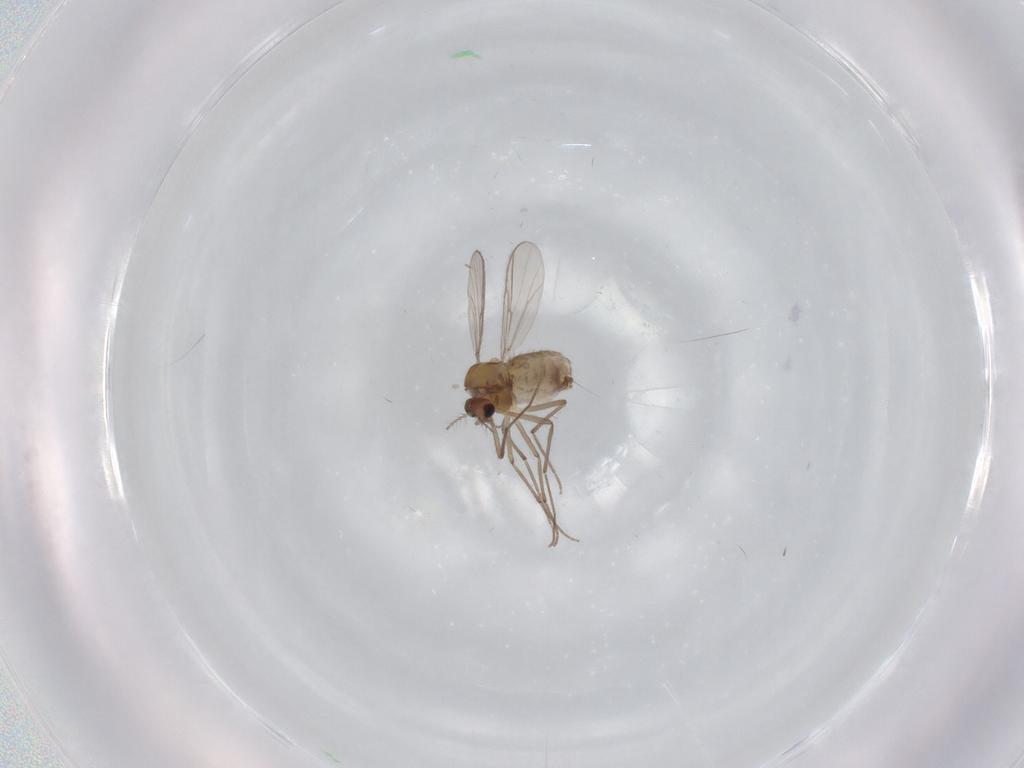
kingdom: Animalia
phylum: Arthropoda
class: Insecta
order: Diptera
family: Chironomidae
